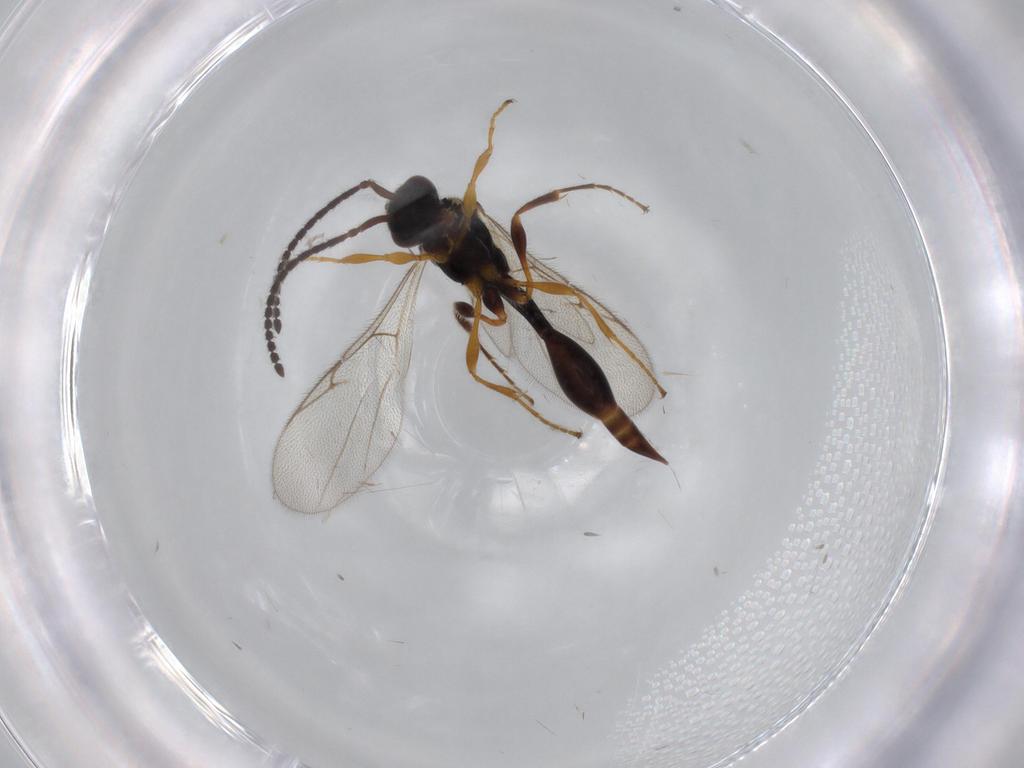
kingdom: Animalia
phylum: Arthropoda
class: Insecta
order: Hymenoptera
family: Diapriidae
